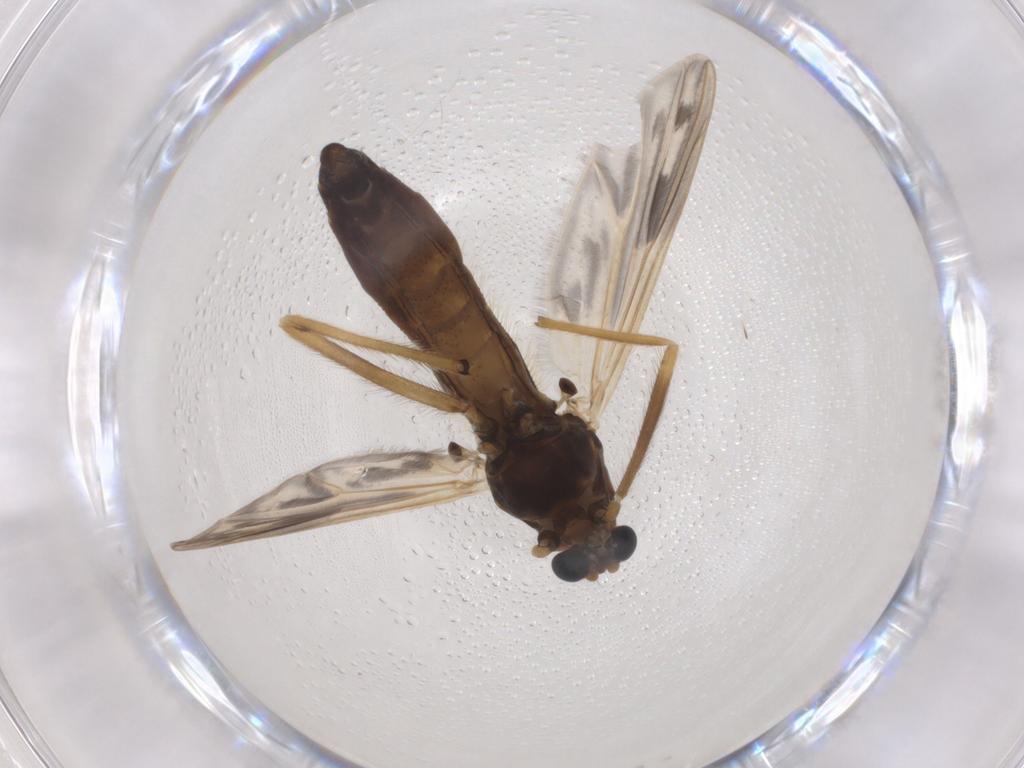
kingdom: Animalia
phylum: Arthropoda
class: Insecta
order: Diptera
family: Chironomidae
